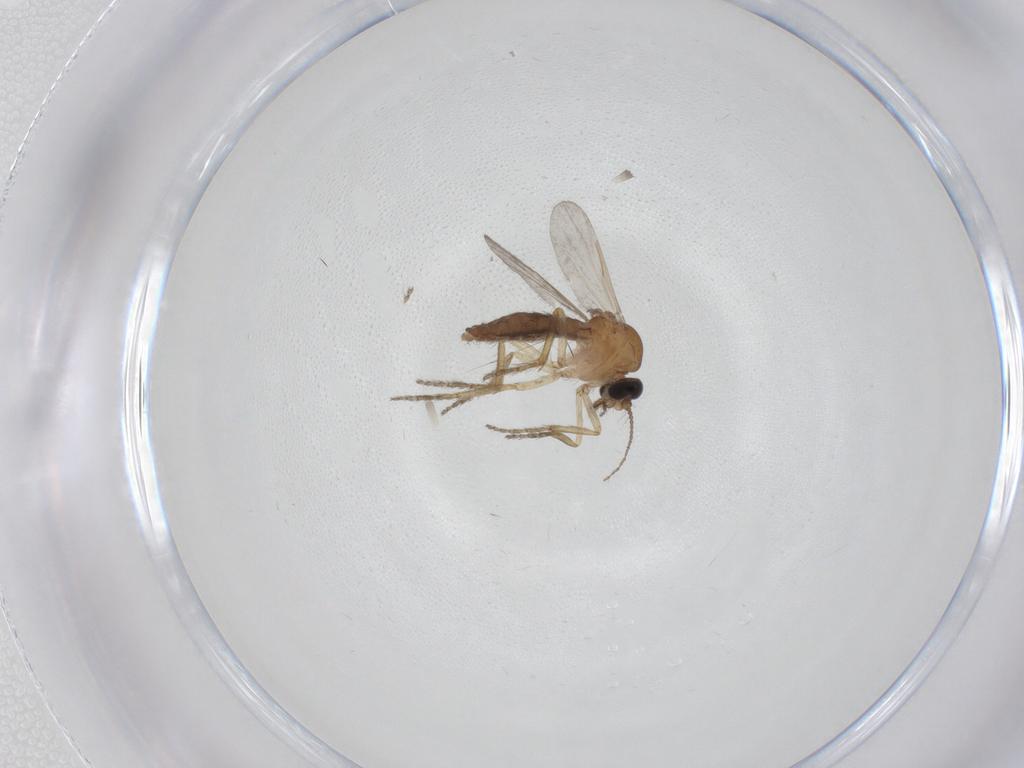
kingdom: Animalia
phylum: Arthropoda
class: Insecta
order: Diptera
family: Ceratopogonidae
